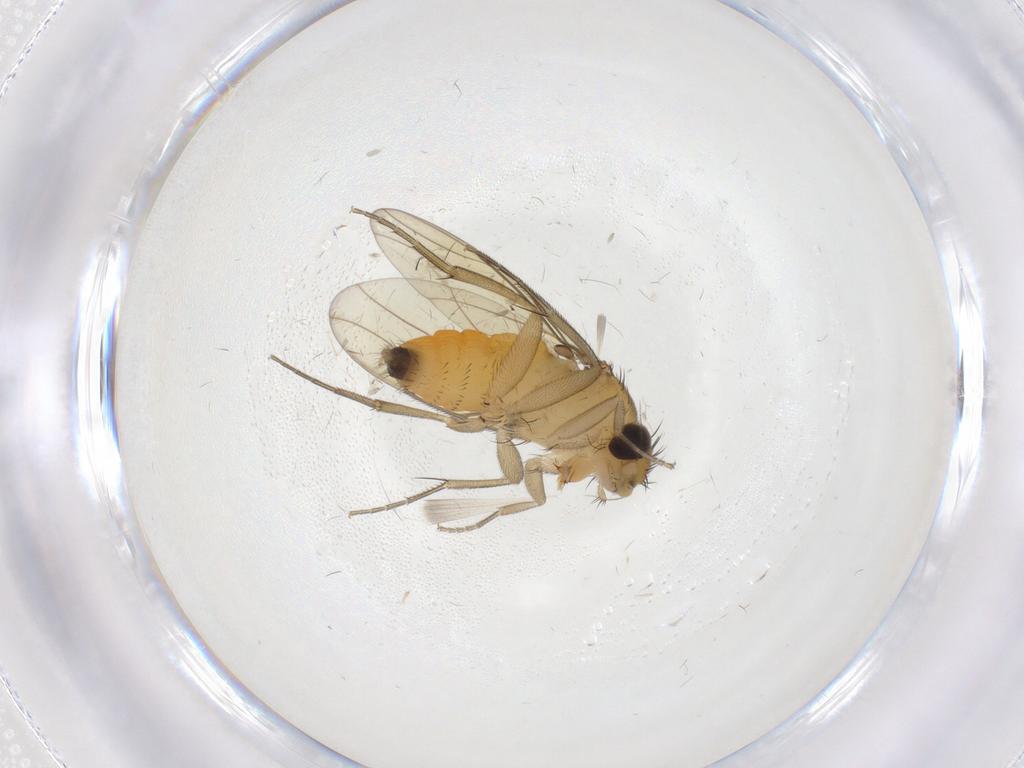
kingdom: Animalia
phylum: Arthropoda
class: Insecta
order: Diptera
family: Phoridae
